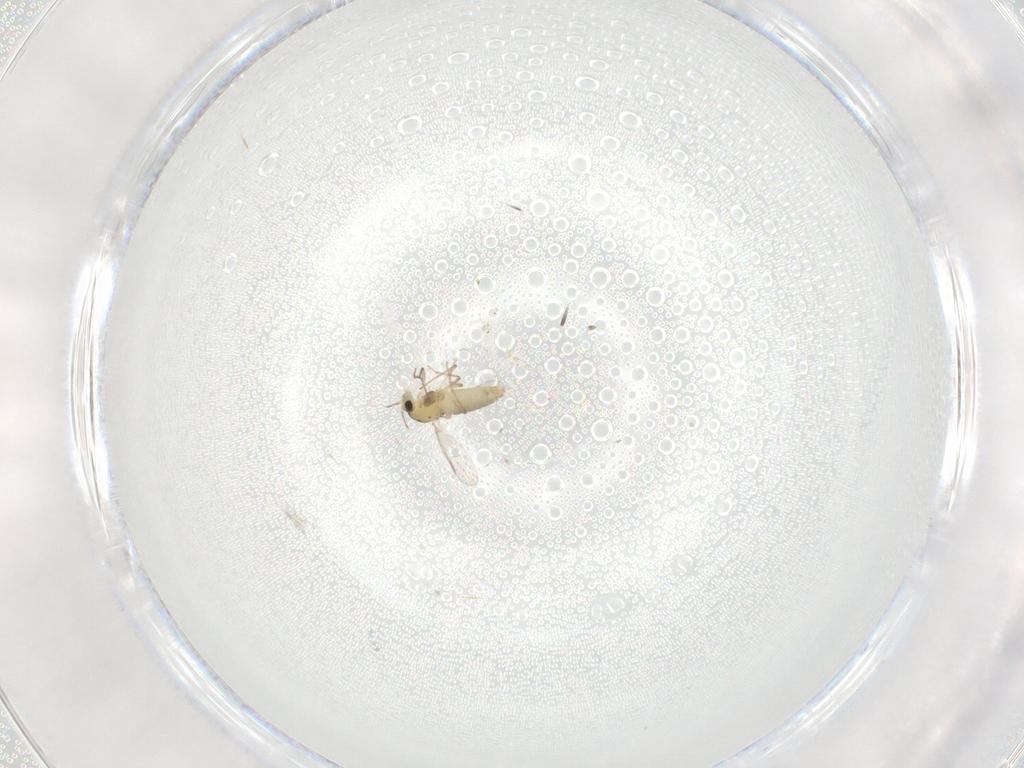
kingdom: Animalia
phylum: Arthropoda
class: Insecta
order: Diptera
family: Chironomidae
